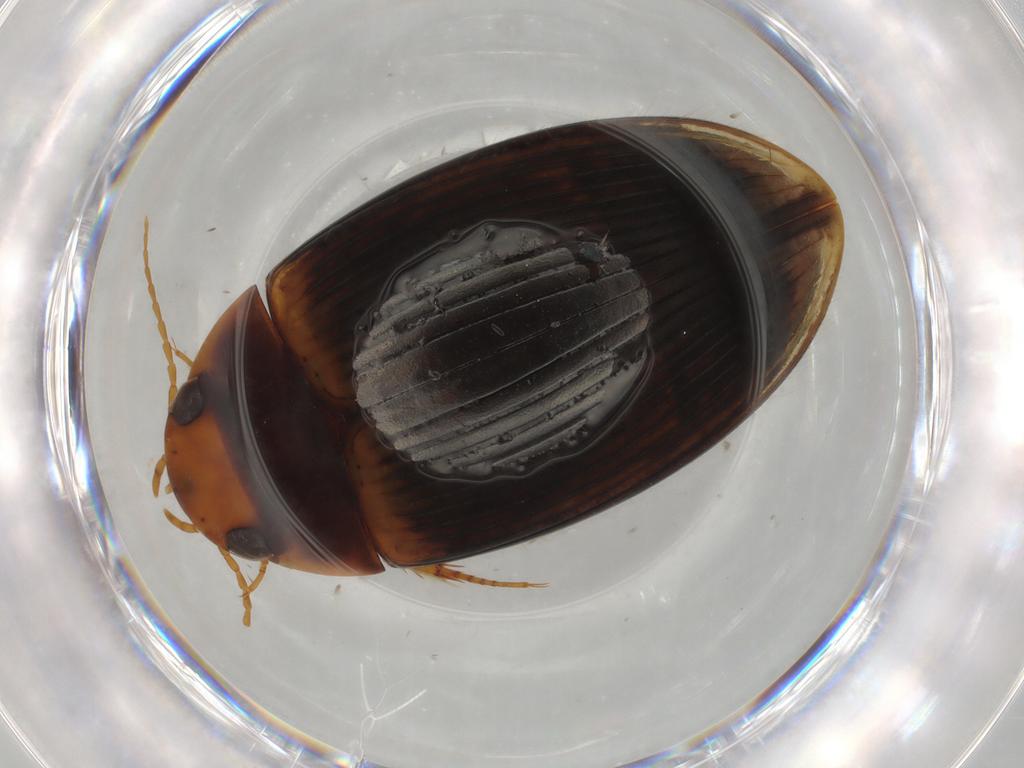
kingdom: Animalia
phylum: Arthropoda
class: Insecta
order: Coleoptera
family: Dytiscidae
